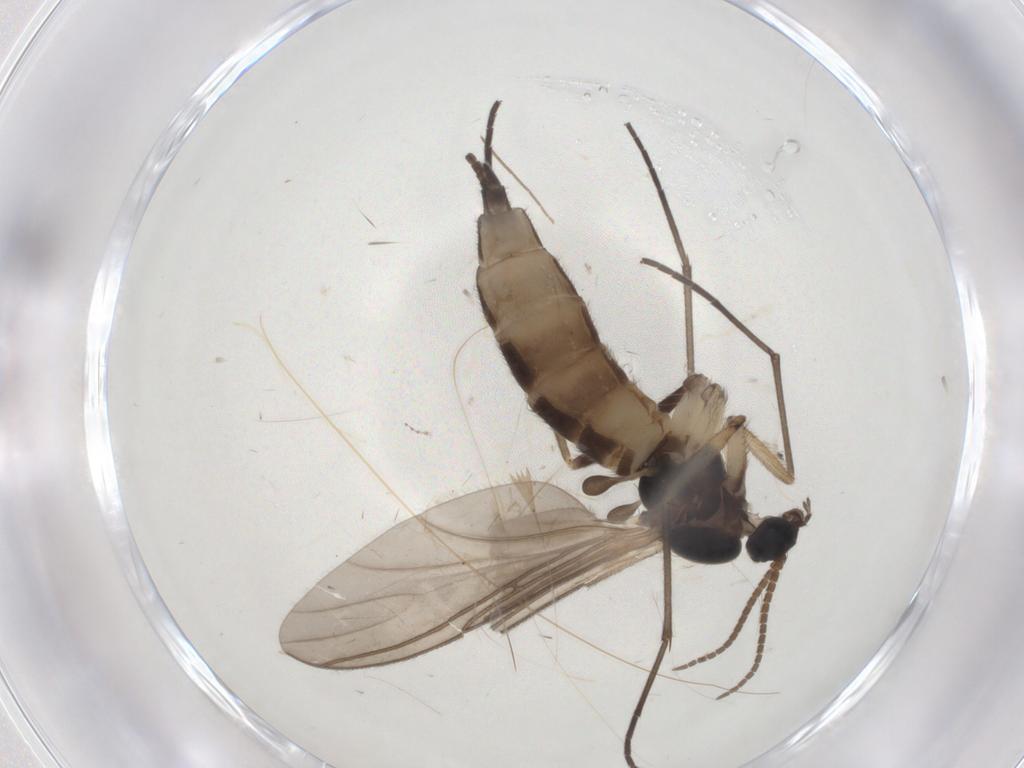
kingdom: Animalia
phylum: Arthropoda
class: Insecta
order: Diptera
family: Sciaridae
